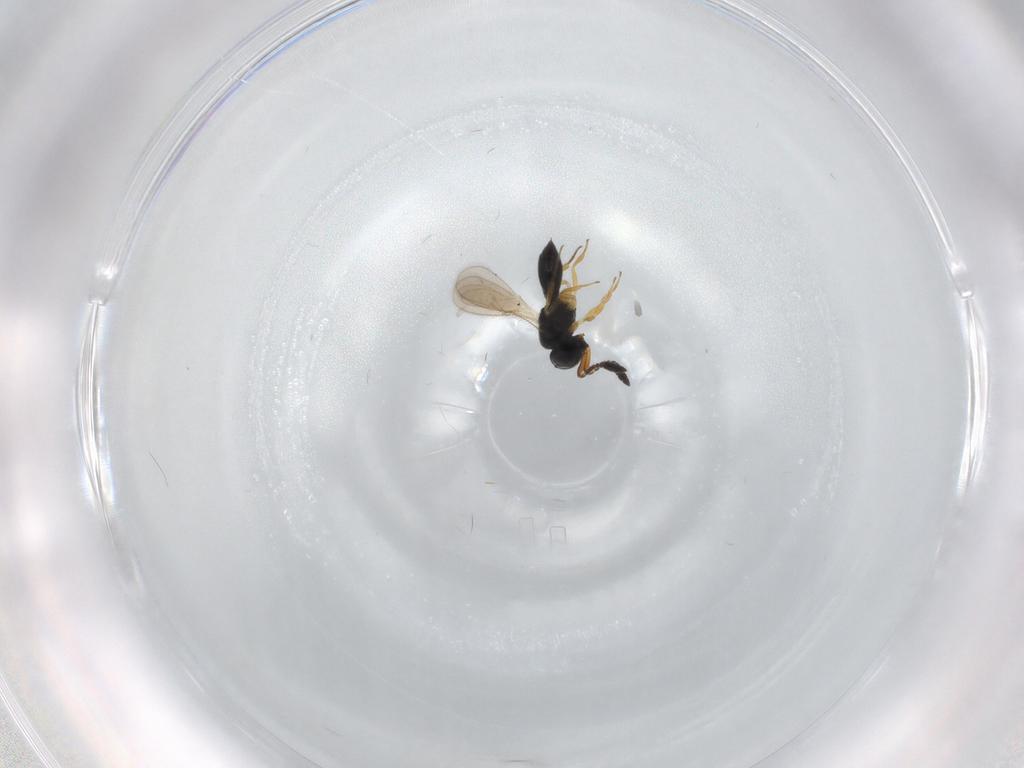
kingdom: Animalia
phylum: Arthropoda
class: Insecta
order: Hymenoptera
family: Scelionidae
